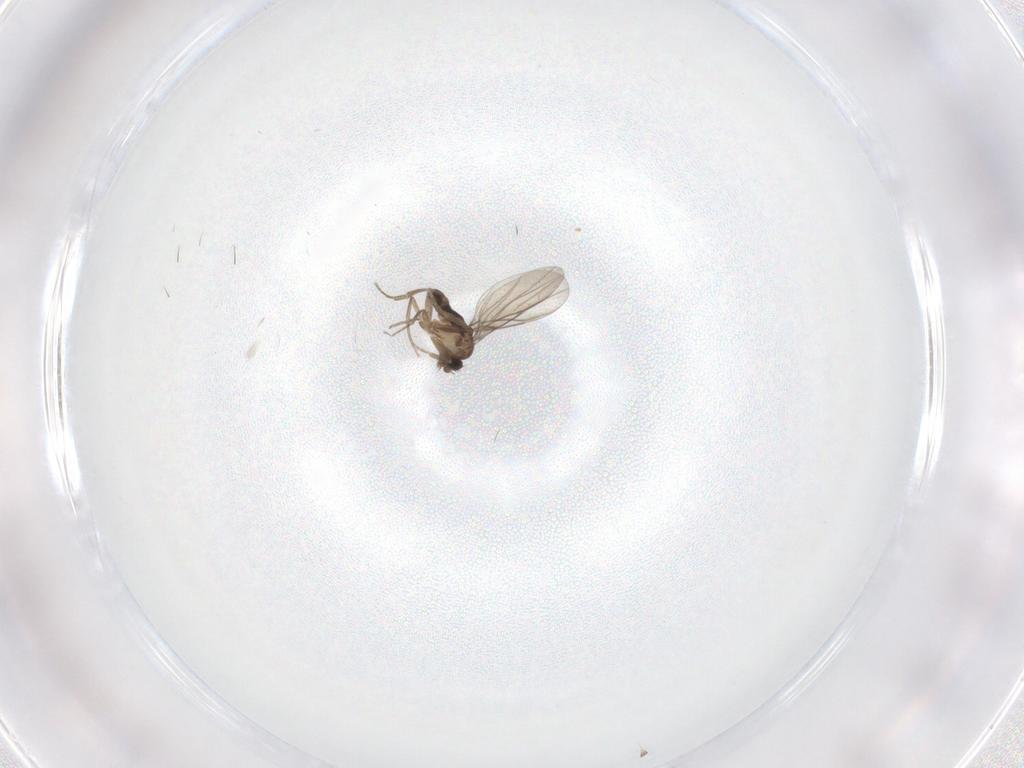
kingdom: Animalia
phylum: Arthropoda
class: Insecta
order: Diptera
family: Phoridae
